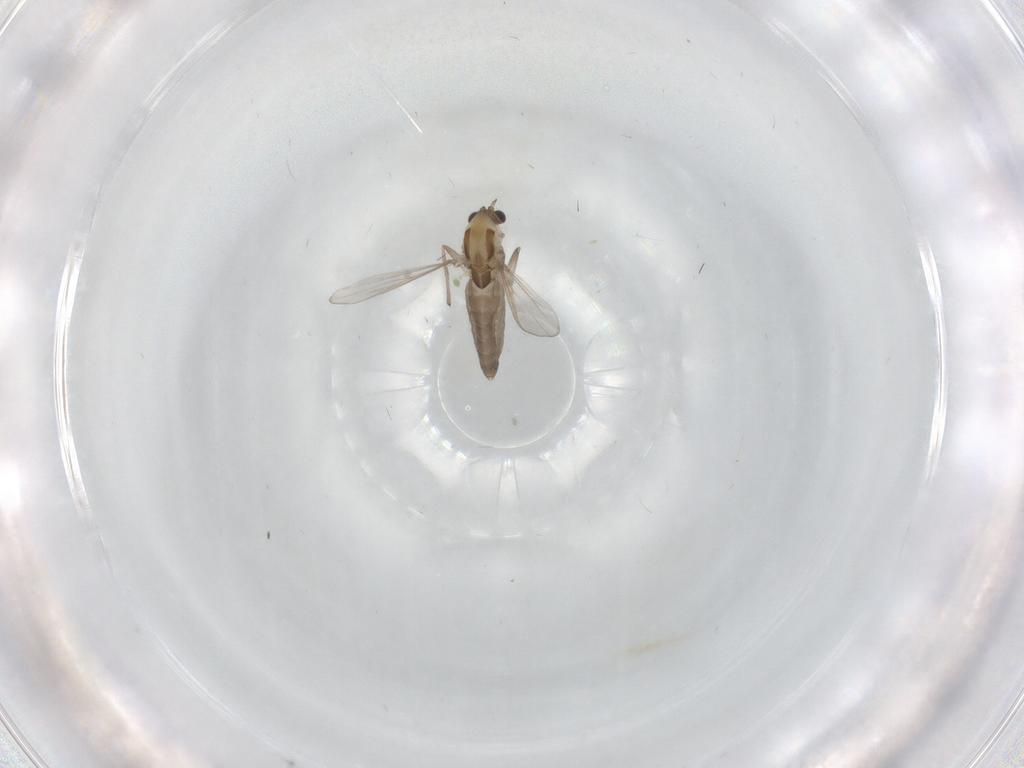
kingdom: Animalia
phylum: Arthropoda
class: Insecta
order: Diptera
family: Chironomidae
